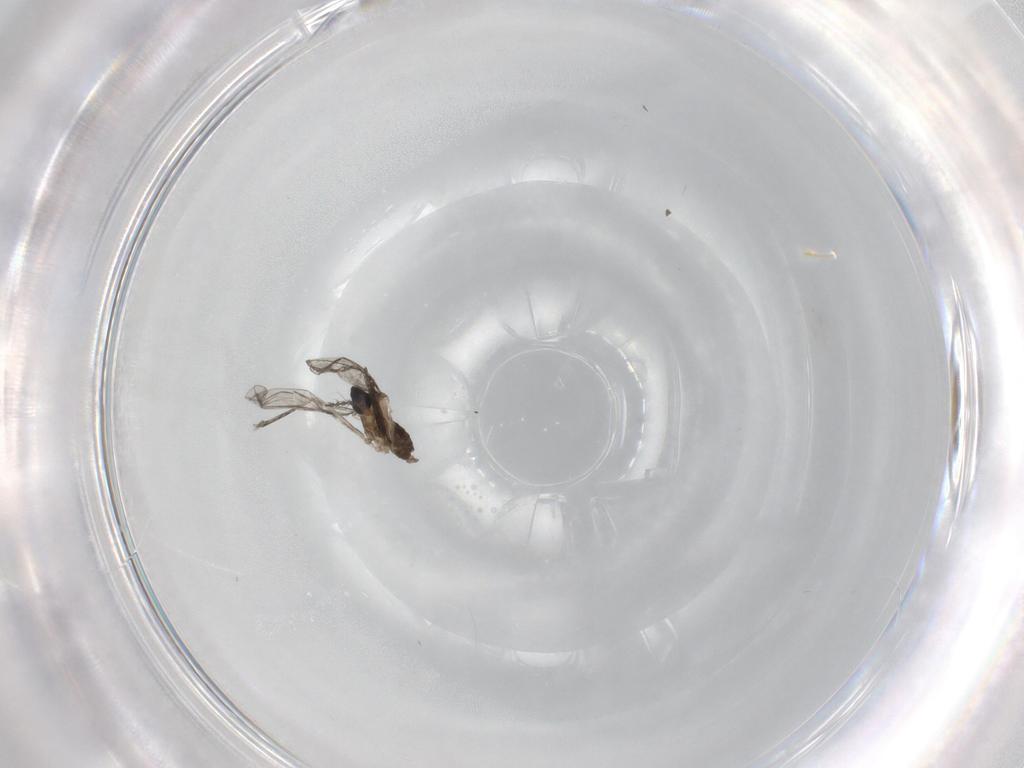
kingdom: Animalia
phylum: Arthropoda
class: Insecta
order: Diptera
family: Cecidomyiidae
